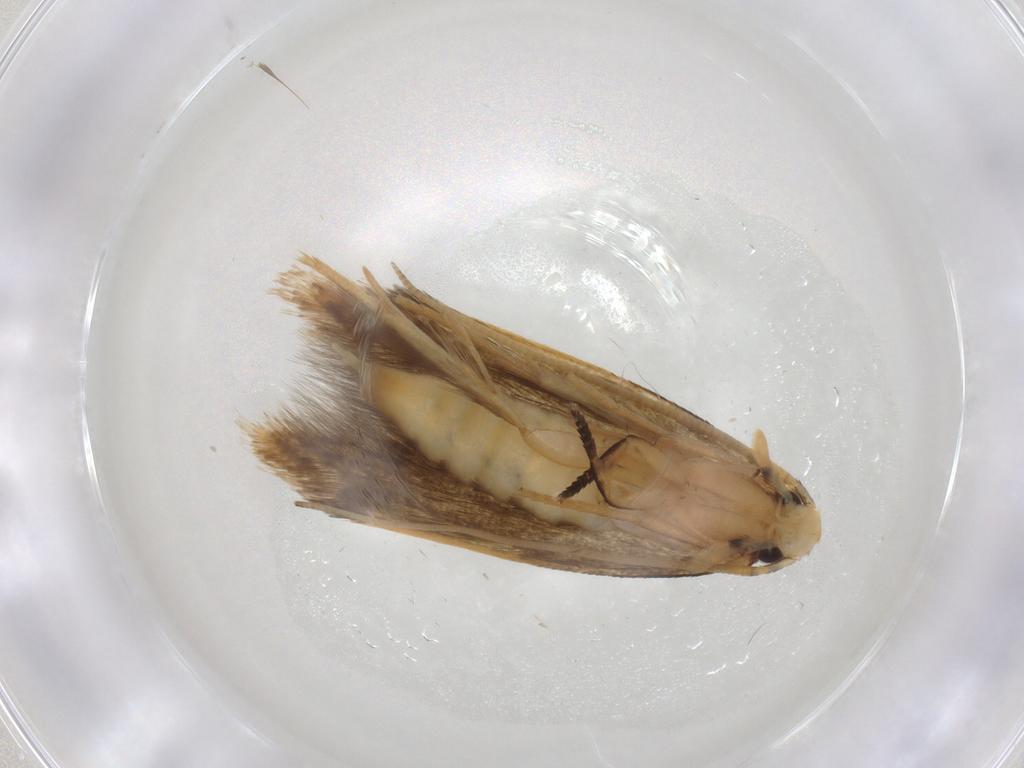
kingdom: Animalia
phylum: Arthropoda
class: Insecta
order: Lepidoptera
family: Tineidae
